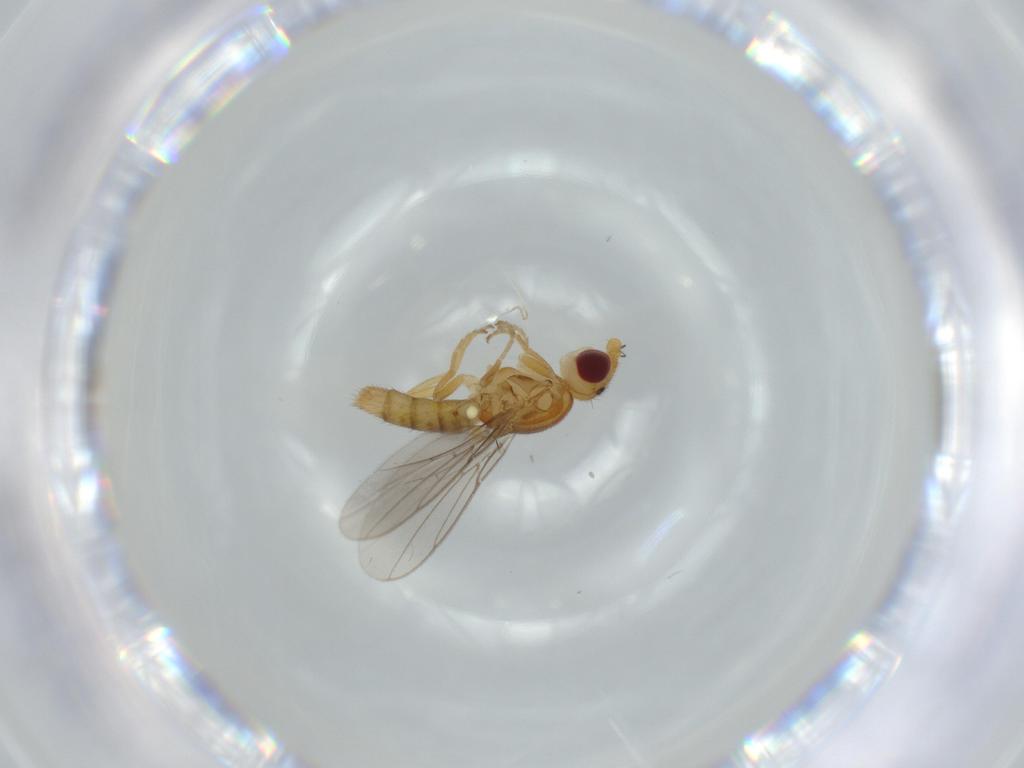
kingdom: Animalia
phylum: Arthropoda
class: Insecta
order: Diptera
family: Chloropidae
